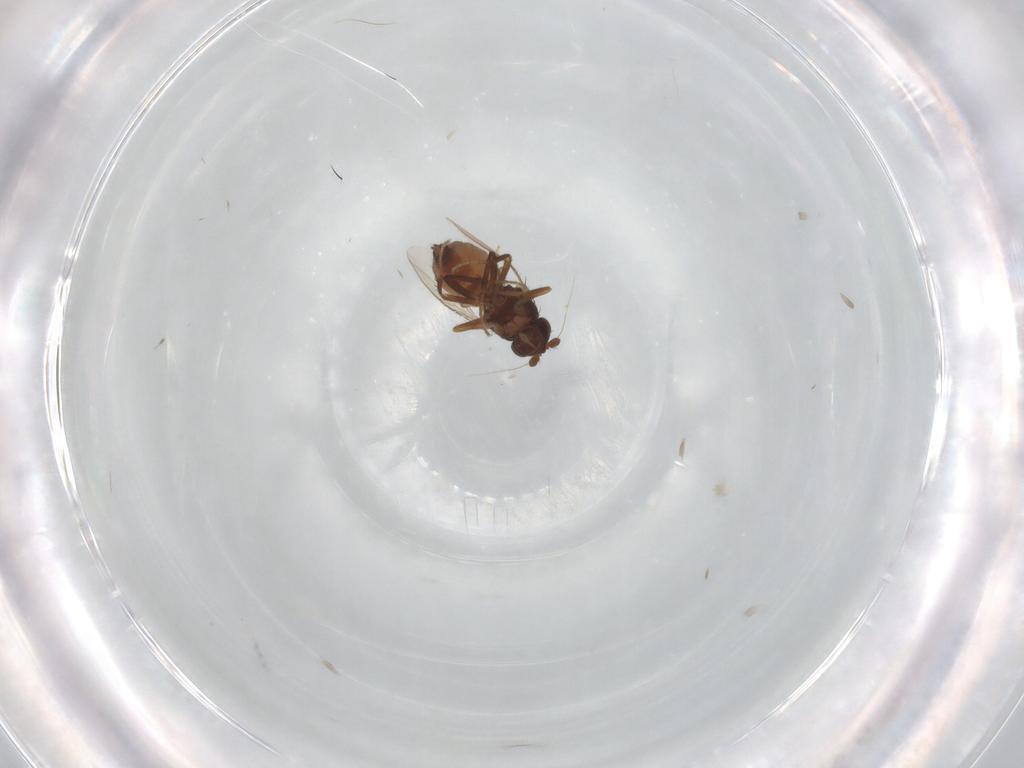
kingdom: Animalia
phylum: Arthropoda
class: Insecta
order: Diptera
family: Sphaeroceridae
